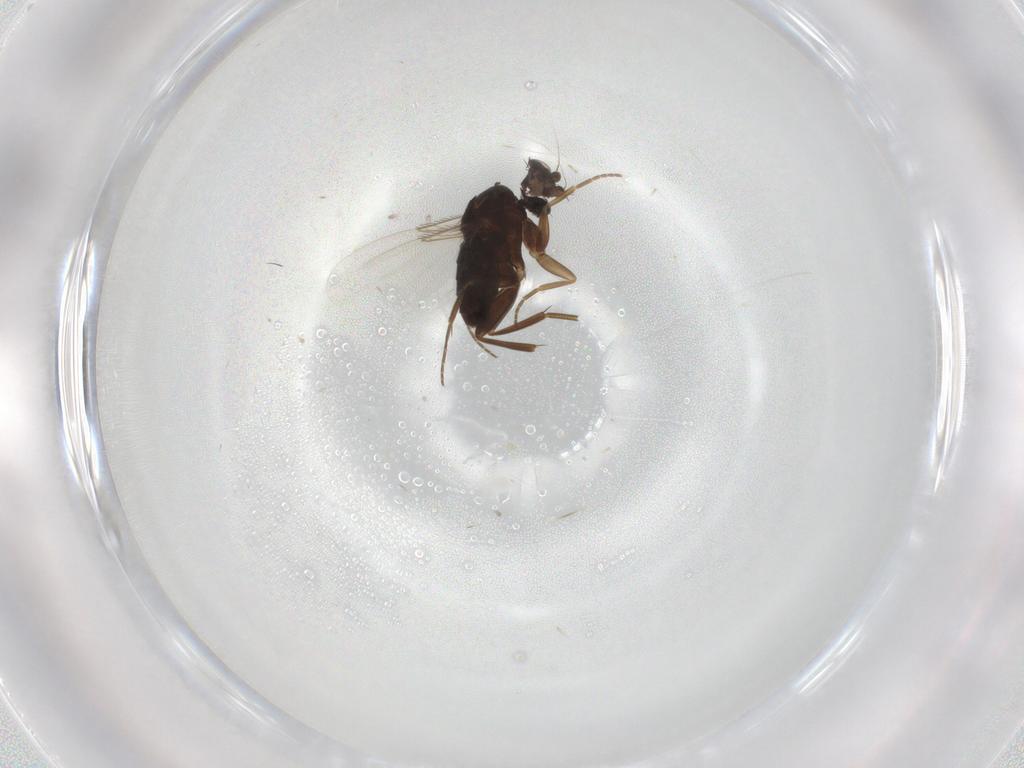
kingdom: Animalia
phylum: Arthropoda
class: Insecta
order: Diptera
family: Phoridae
